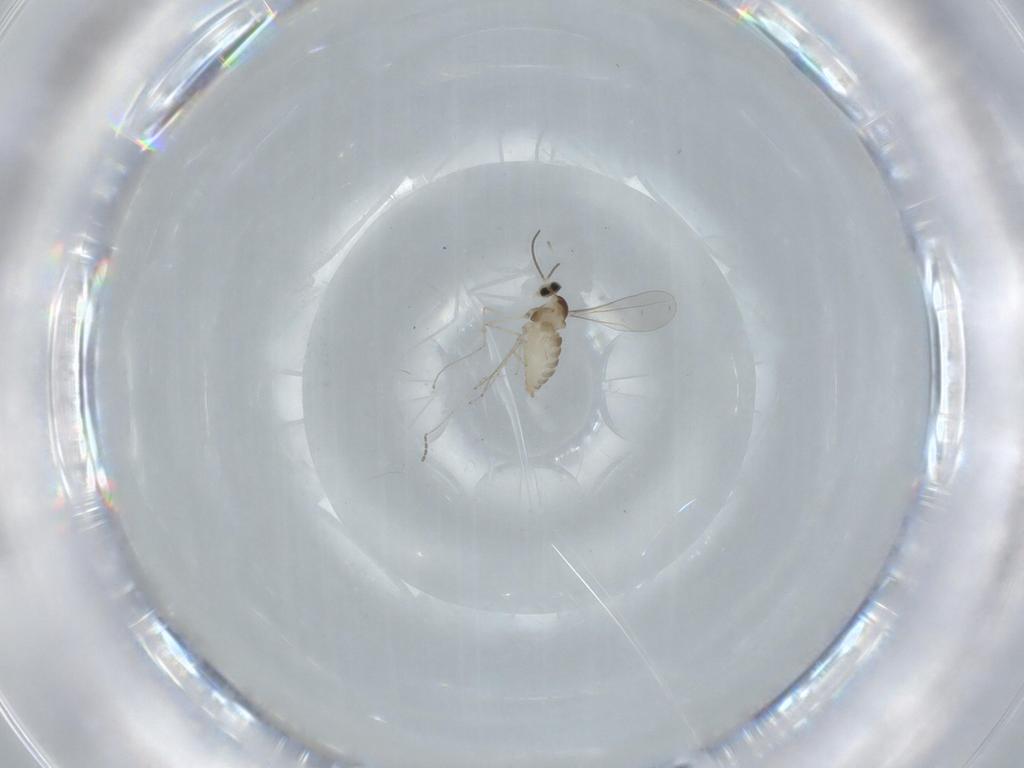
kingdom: Animalia
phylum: Arthropoda
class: Insecta
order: Diptera
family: Cecidomyiidae
